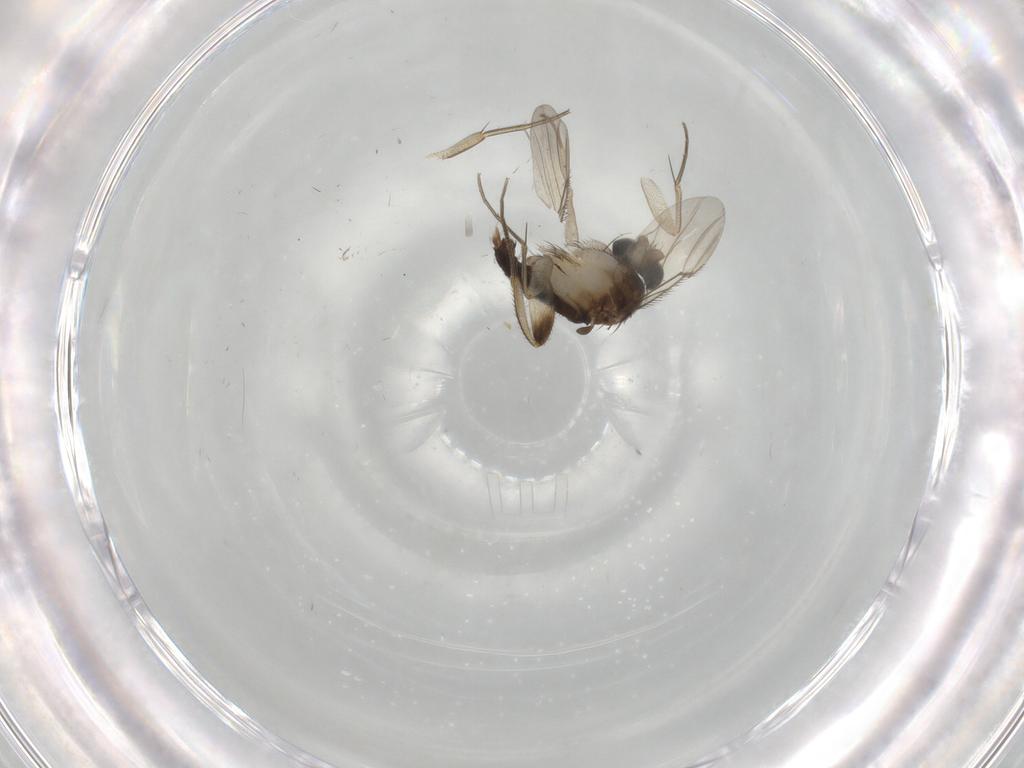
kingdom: Animalia
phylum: Arthropoda
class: Insecta
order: Diptera
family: Phoridae
